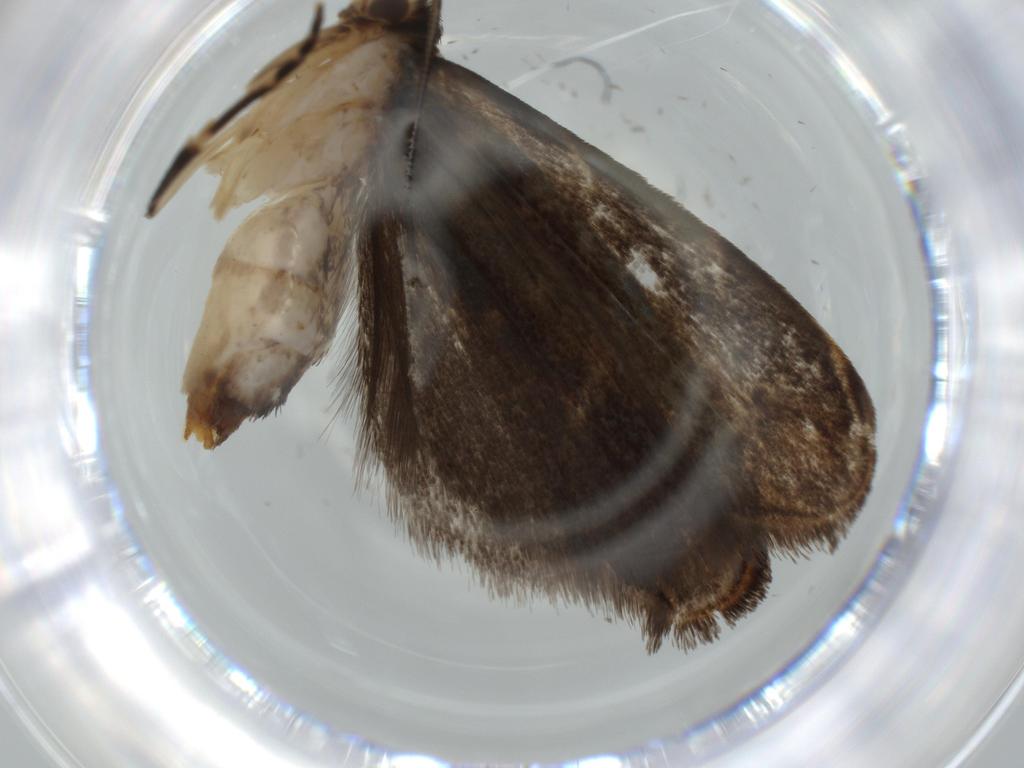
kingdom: Animalia
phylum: Arthropoda
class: Insecta
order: Lepidoptera
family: Dryadaulidae
